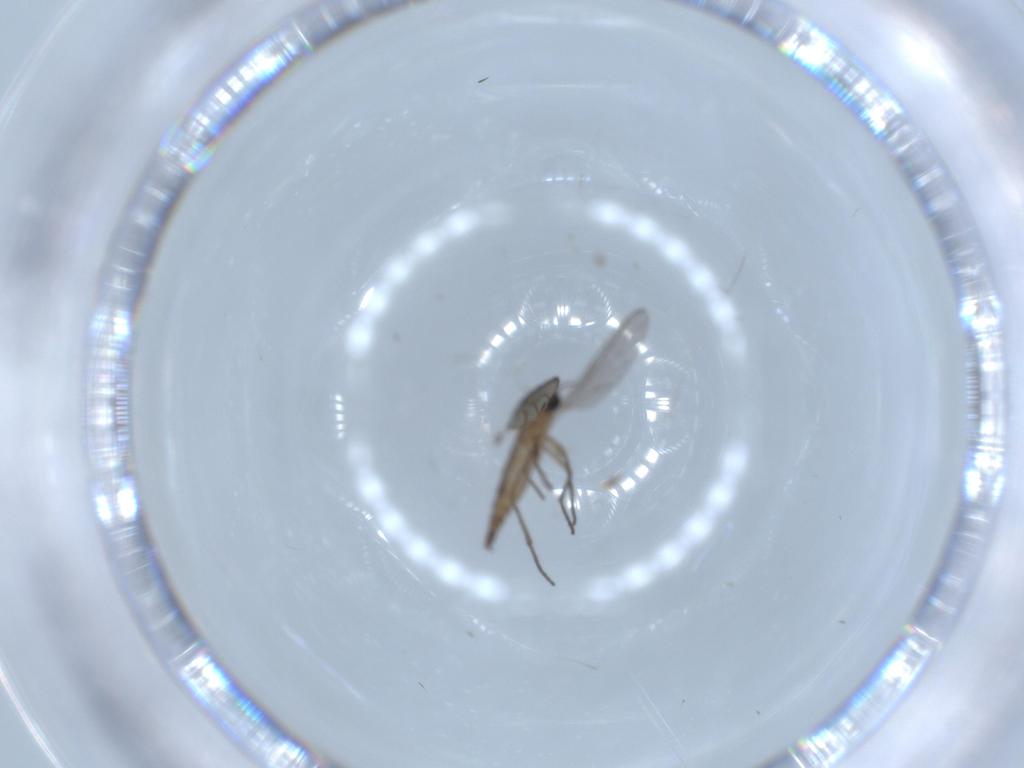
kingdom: Animalia
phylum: Arthropoda
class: Insecta
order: Diptera
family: Sciaridae
